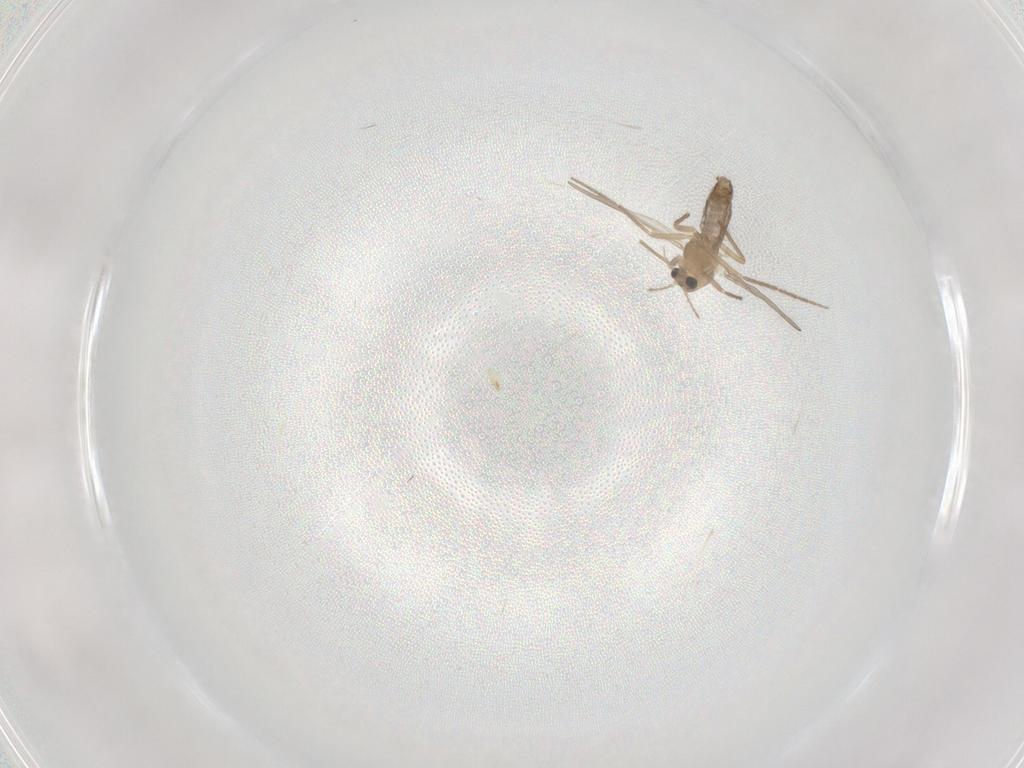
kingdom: Animalia
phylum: Arthropoda
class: Insecta
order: Diptera
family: Chironomidae
